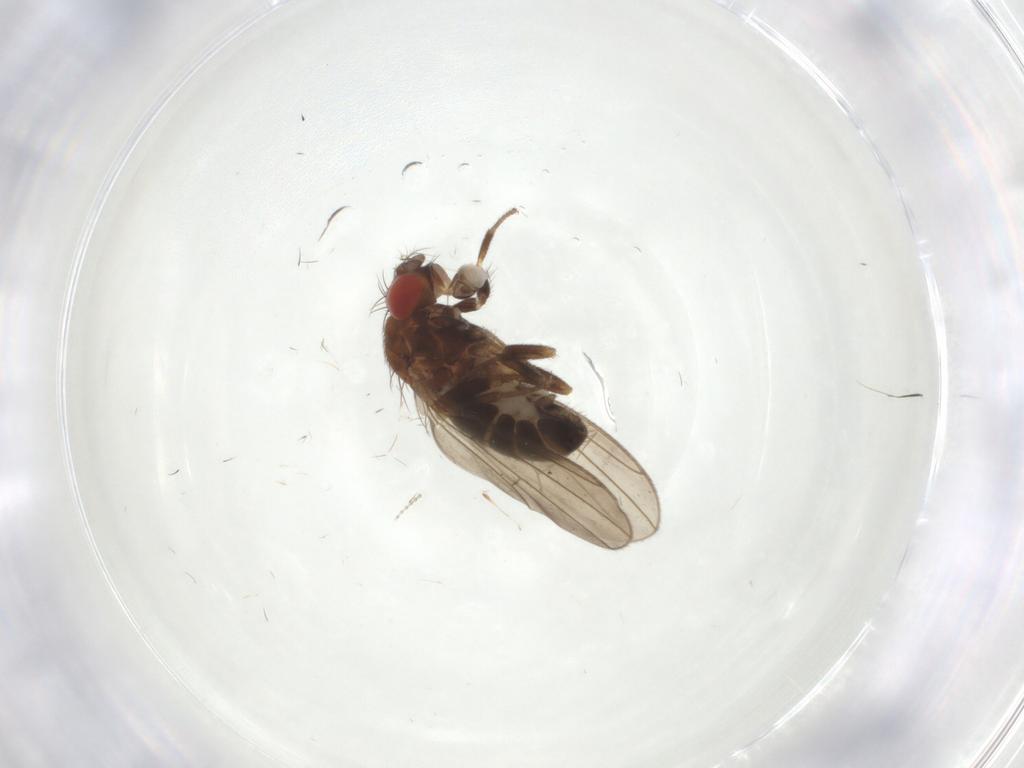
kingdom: Animalia
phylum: Arthropoda
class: Insecta
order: Diptera
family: Drosophilidae
